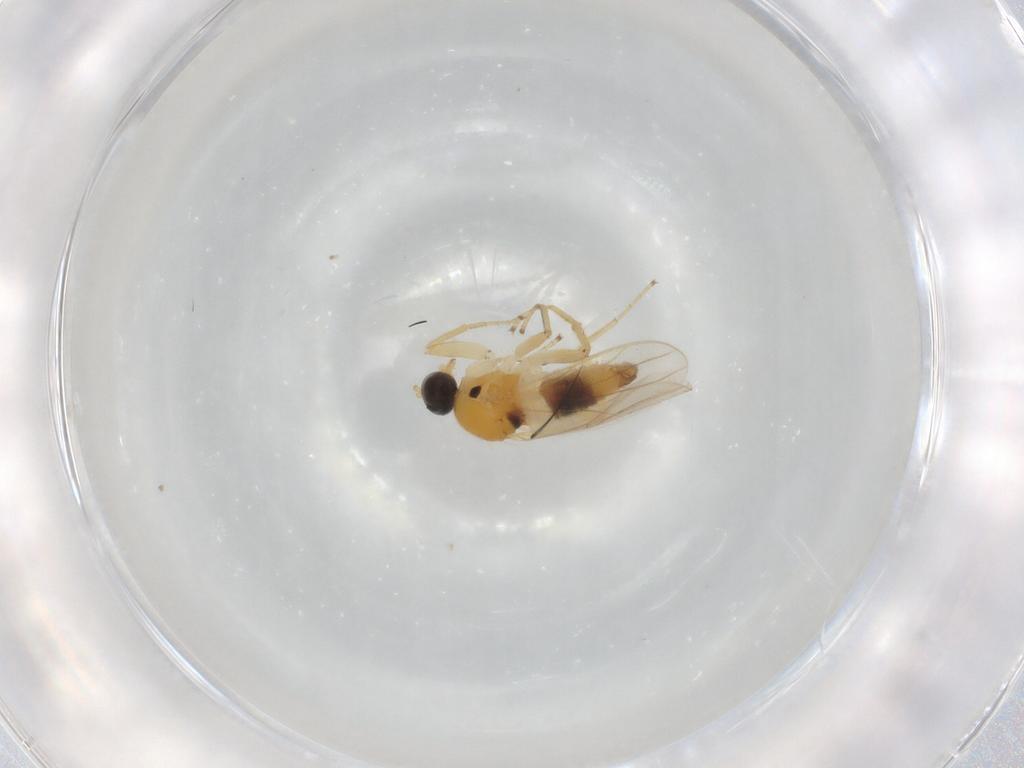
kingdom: Animalia
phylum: Arthropoda
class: Insecta
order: Diptera
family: Hybotidae
